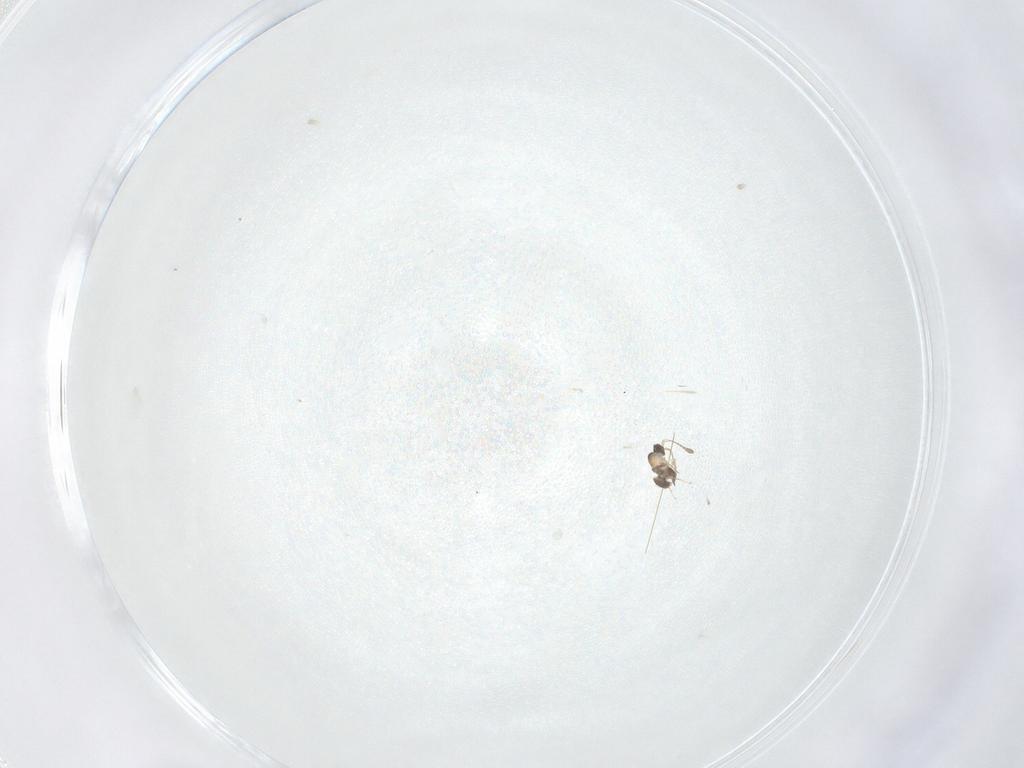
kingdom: Animalia
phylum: Arthropoda
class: Insecta
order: Hymenoptera
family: Mymaridae
